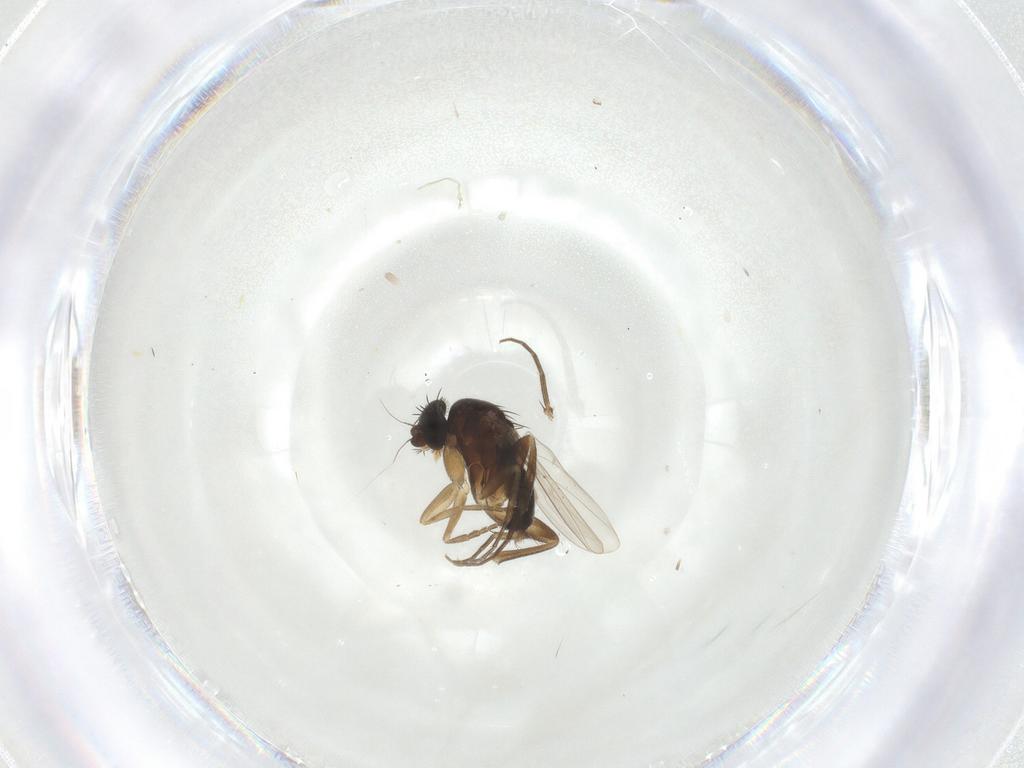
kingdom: Animalia
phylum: Arthropoda
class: Insecta
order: Diptera
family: Phoridae
